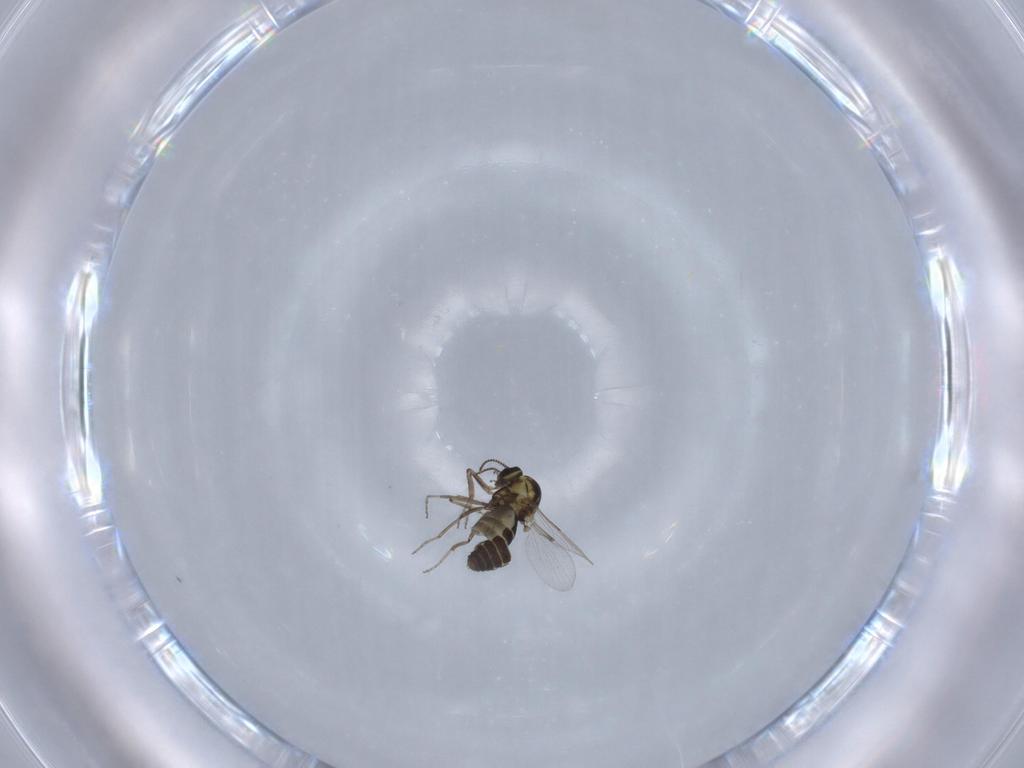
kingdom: Animalia
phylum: Arthropoda
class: Insecta
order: Diptera
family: Ceratopogonidae
